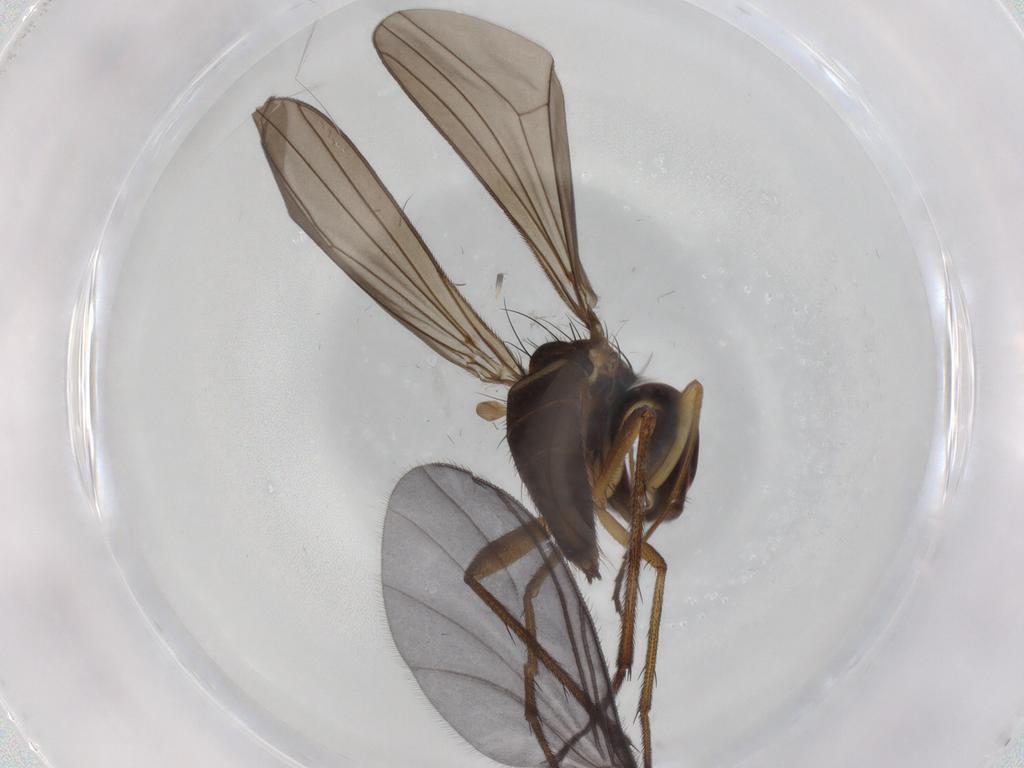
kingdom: Animalia
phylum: Arthropoda
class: Insecta
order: Diptera
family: Dolichopodidae
